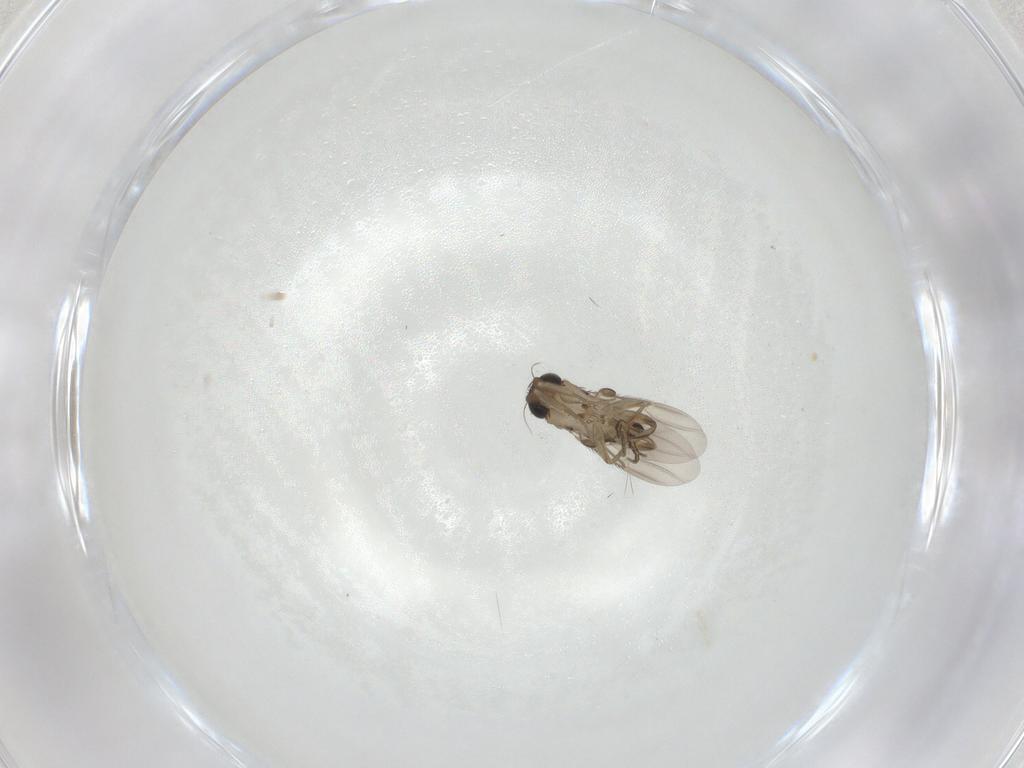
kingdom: Animalia
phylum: Arthropoda
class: Insecta
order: Diptera
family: Phoridae
